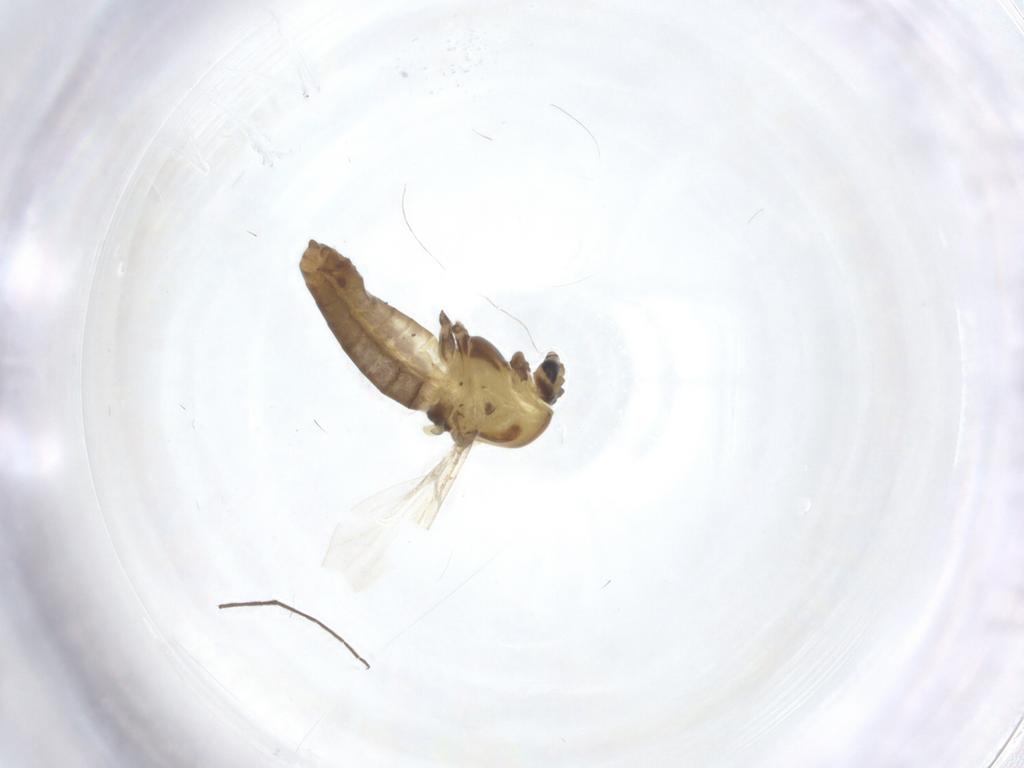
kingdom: Animalia
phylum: Arthropoda
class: Insecta
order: Diptera
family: Chironomidae
